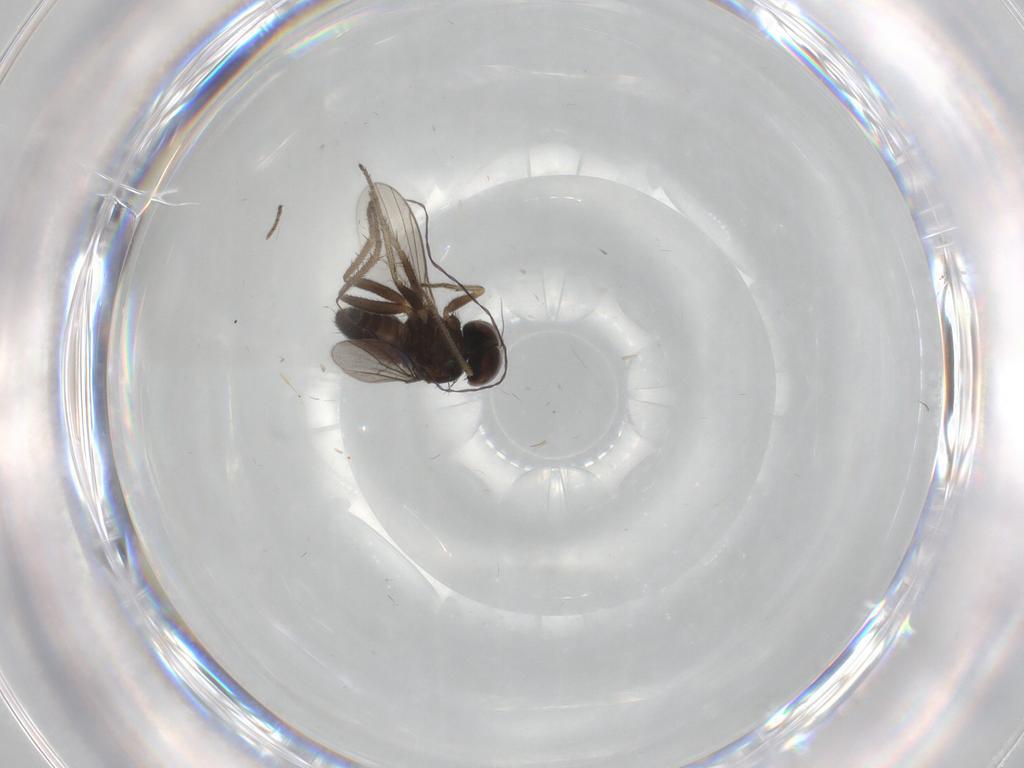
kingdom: Animalia
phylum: Arthropoda
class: Insecta
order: Diptera
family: Dolichopodidae
